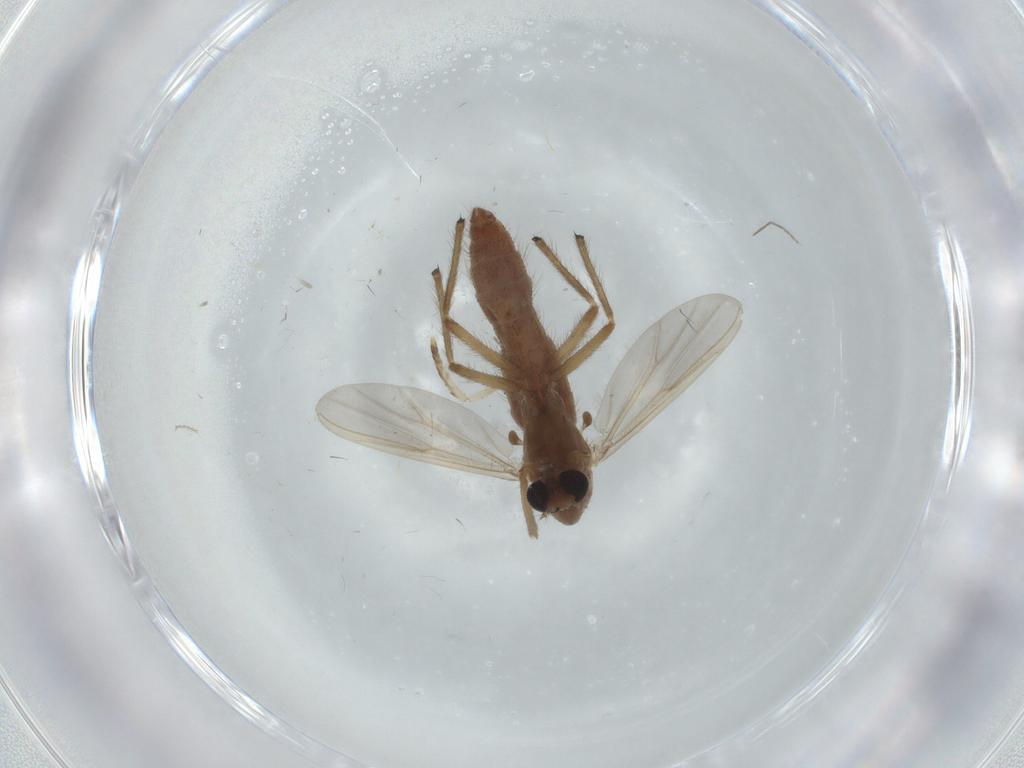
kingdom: Animalia
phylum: Arthropoda
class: Insecta
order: Diptera
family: Chironomidae
